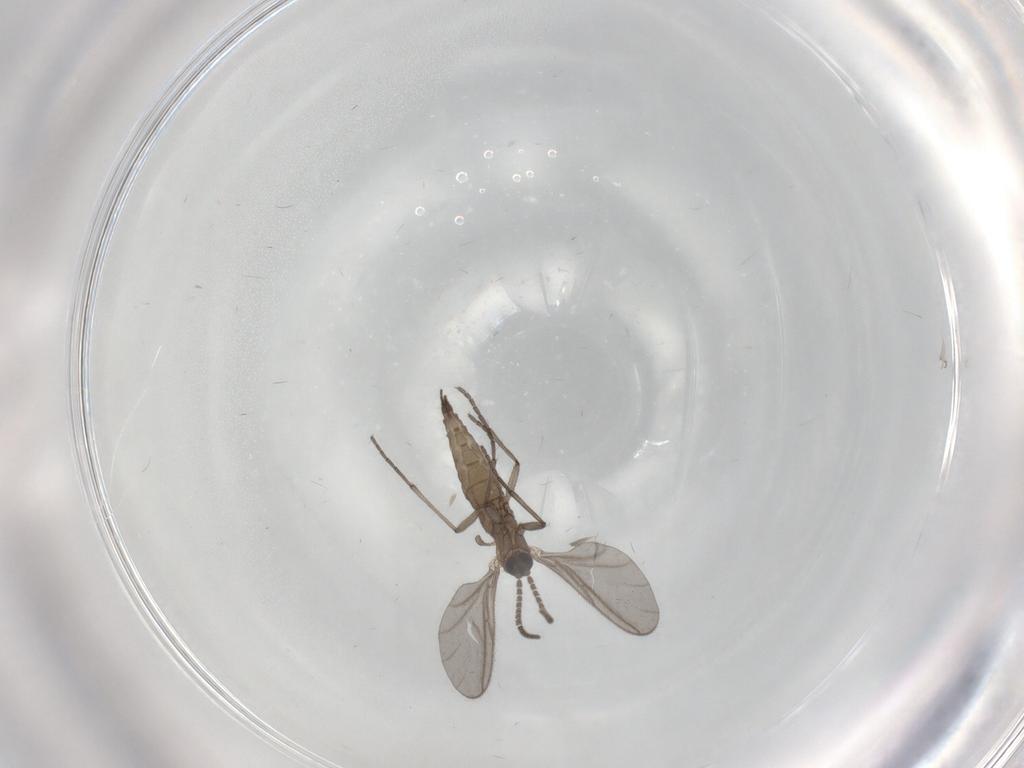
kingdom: Animalia
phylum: Arthropoda
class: Insecta
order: Diptera
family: Sciaridae
